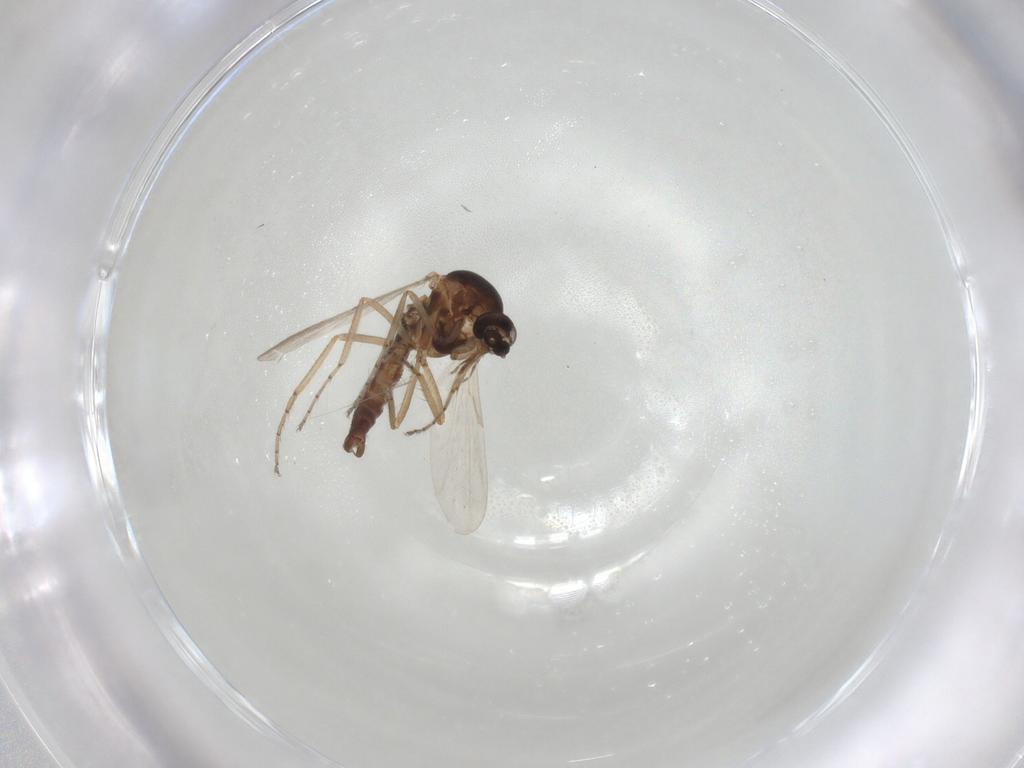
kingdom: Animalia
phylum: Arthropoda
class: Insecta
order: Diptera
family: Ceratopogonidae
